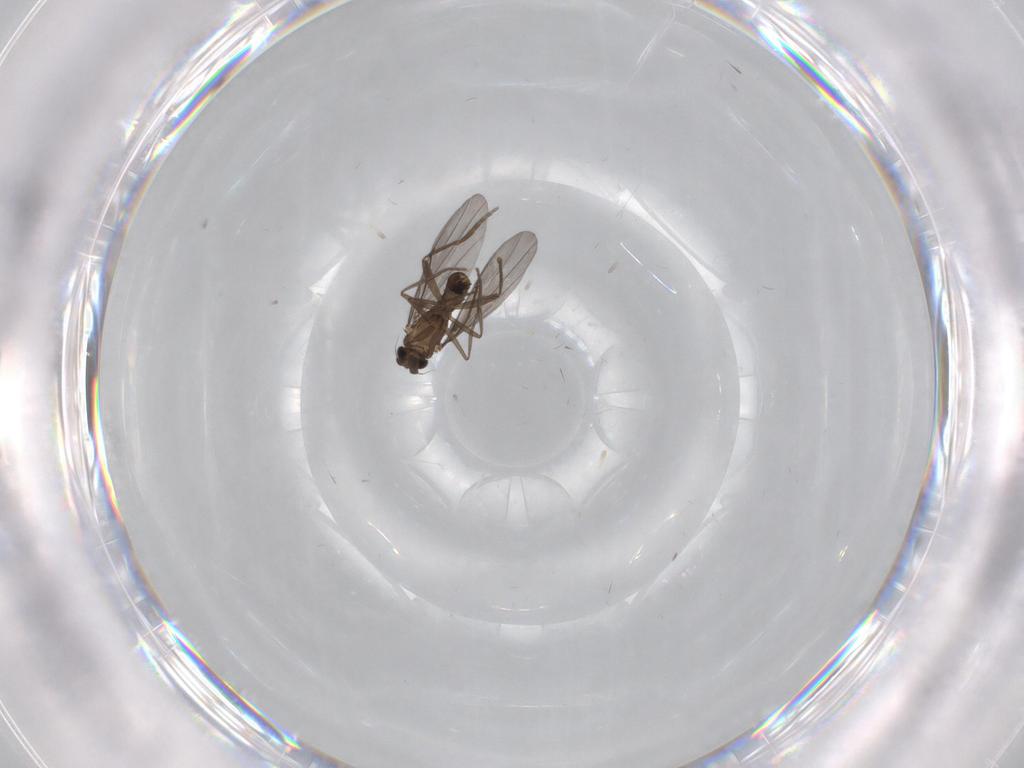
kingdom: Animalia
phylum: Arthropoda
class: Insecta
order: Diptera
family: Phoridae
